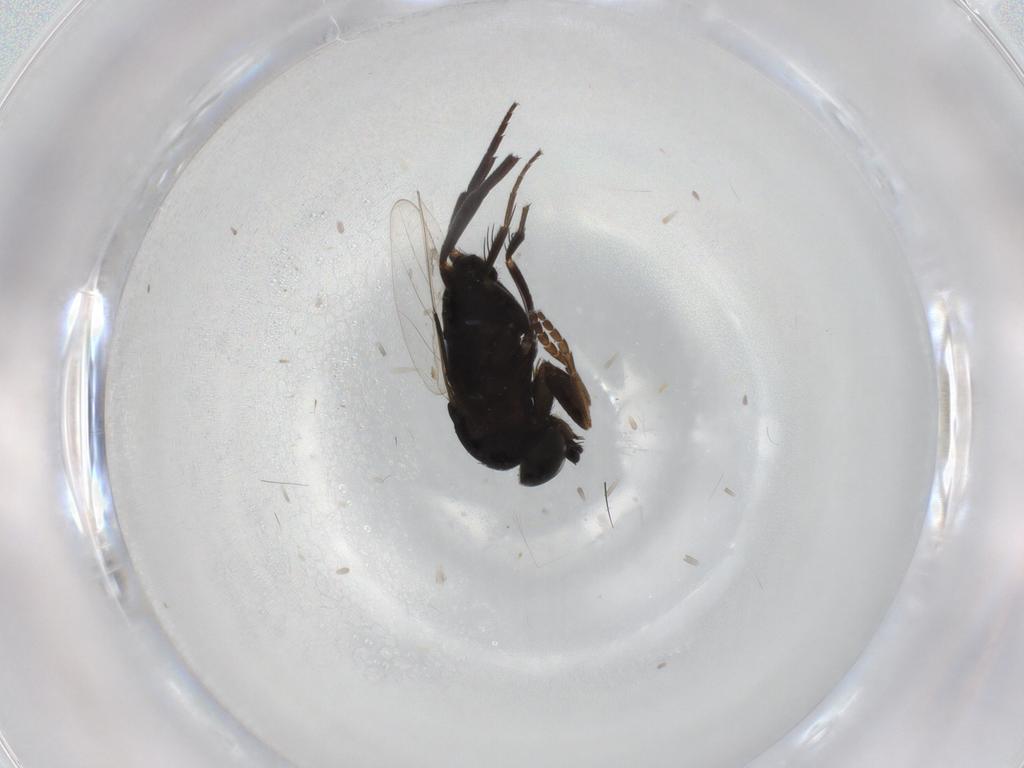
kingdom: Animalia
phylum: Arthropoda
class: Insecta
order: Diptera
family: Phoridae
